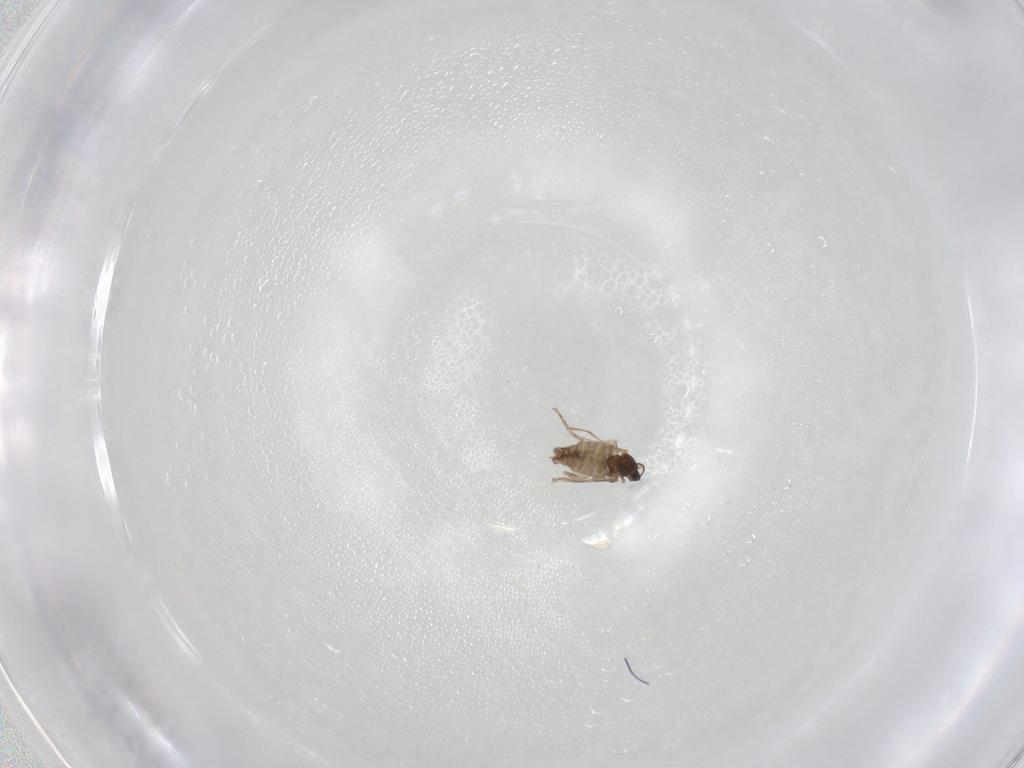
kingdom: Animalia
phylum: Arthropoda
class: Insecta
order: Diptera
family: Cecidomyiidae
